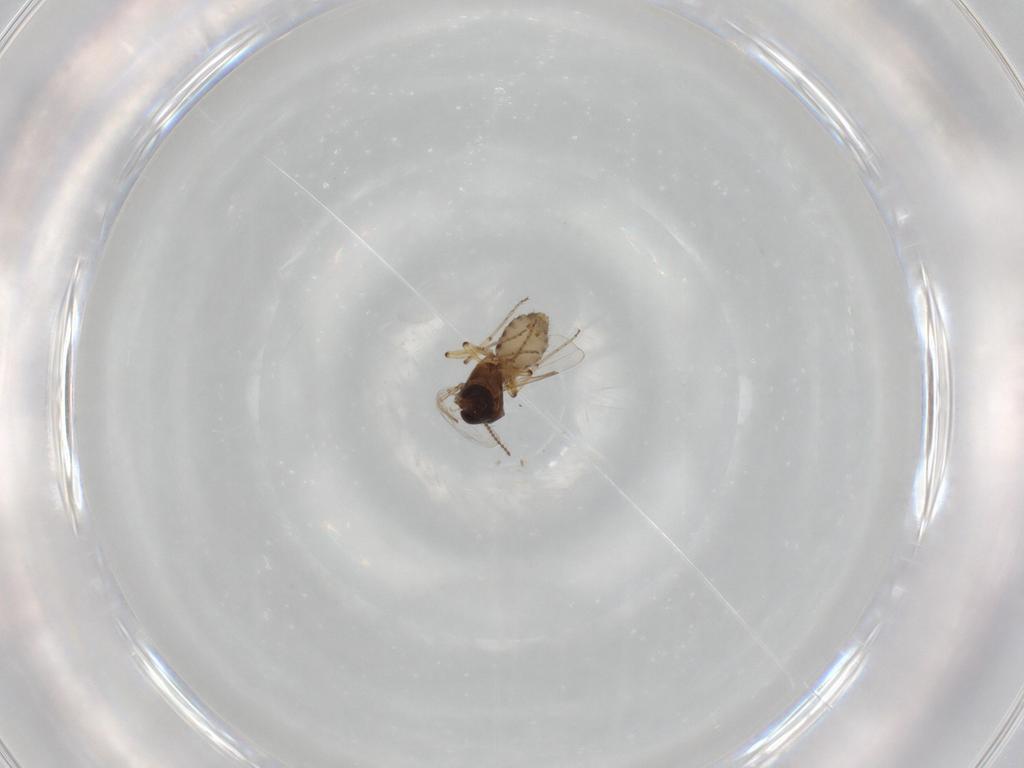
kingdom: Animalia
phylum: Arthropoda
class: Insecta
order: Diptera
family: Ceratopogonidae
